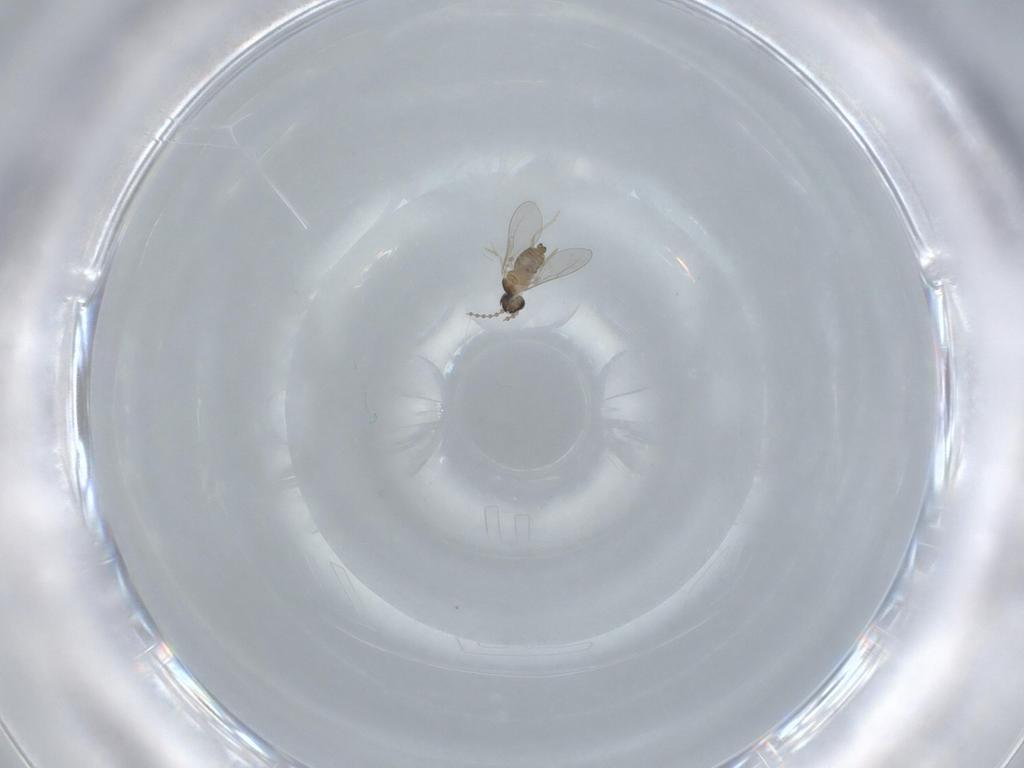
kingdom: Animalia
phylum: Arthropoda
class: Insecta
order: Diptera
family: Cecidomyiidae
